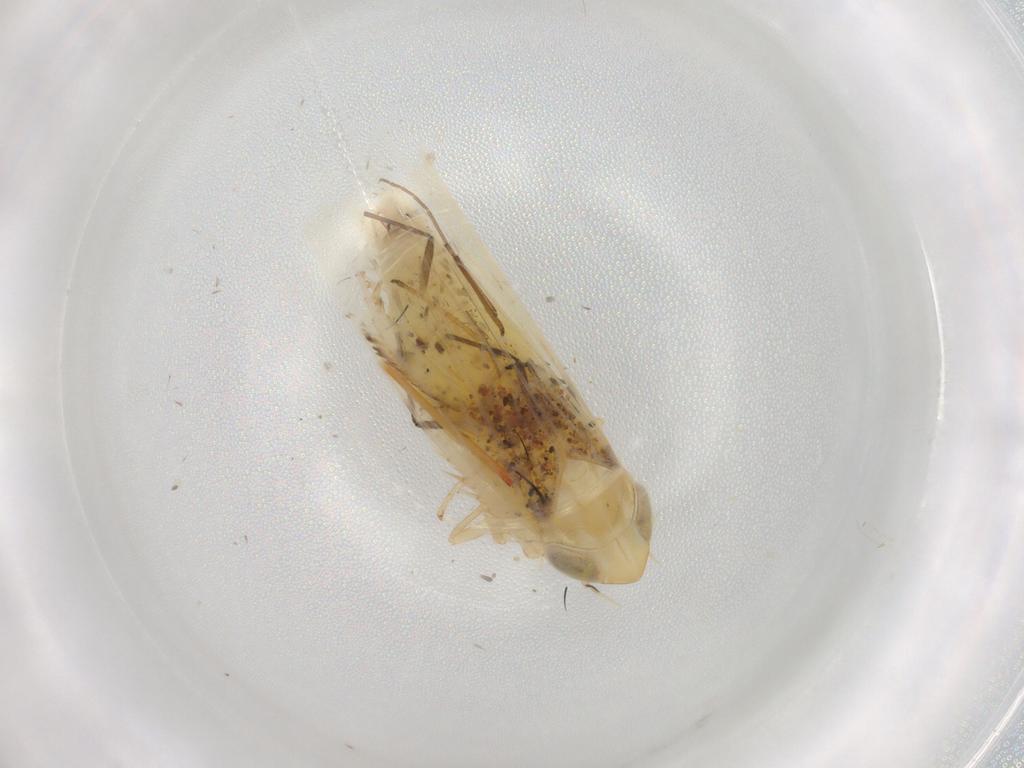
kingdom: Animalia
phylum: Arthropoda
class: Insecta
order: Hemiptera
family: Cicadellidae
